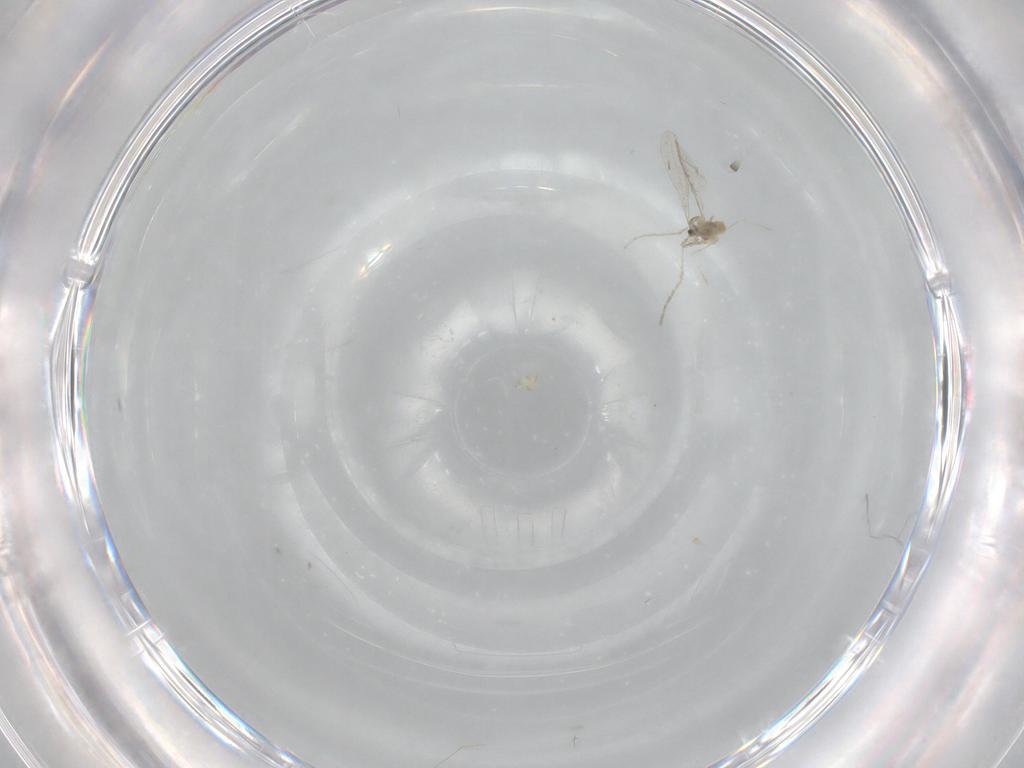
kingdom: Animalia
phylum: Arthropoda
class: Insecta
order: Diptera
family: Chironomidae
